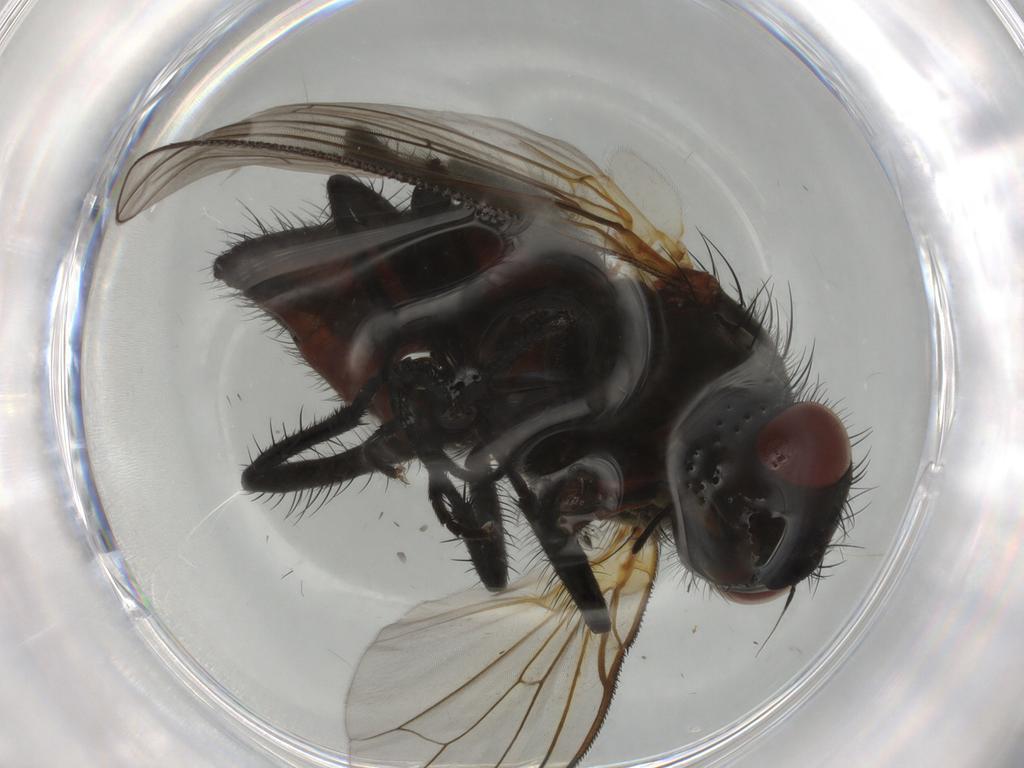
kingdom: Animalia
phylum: Arthropoda
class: Insecta
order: Diptera
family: Anthomyiidae
